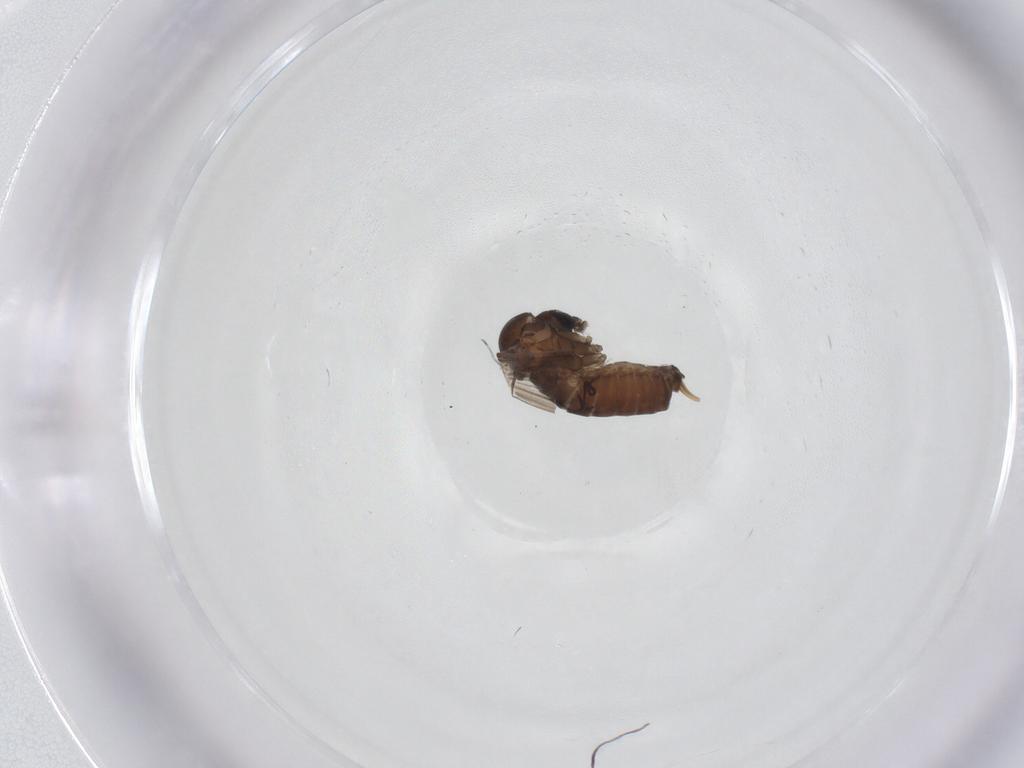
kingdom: Animalia
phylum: Arthropoda
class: Insecta
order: Diptera
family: Psychodidae
